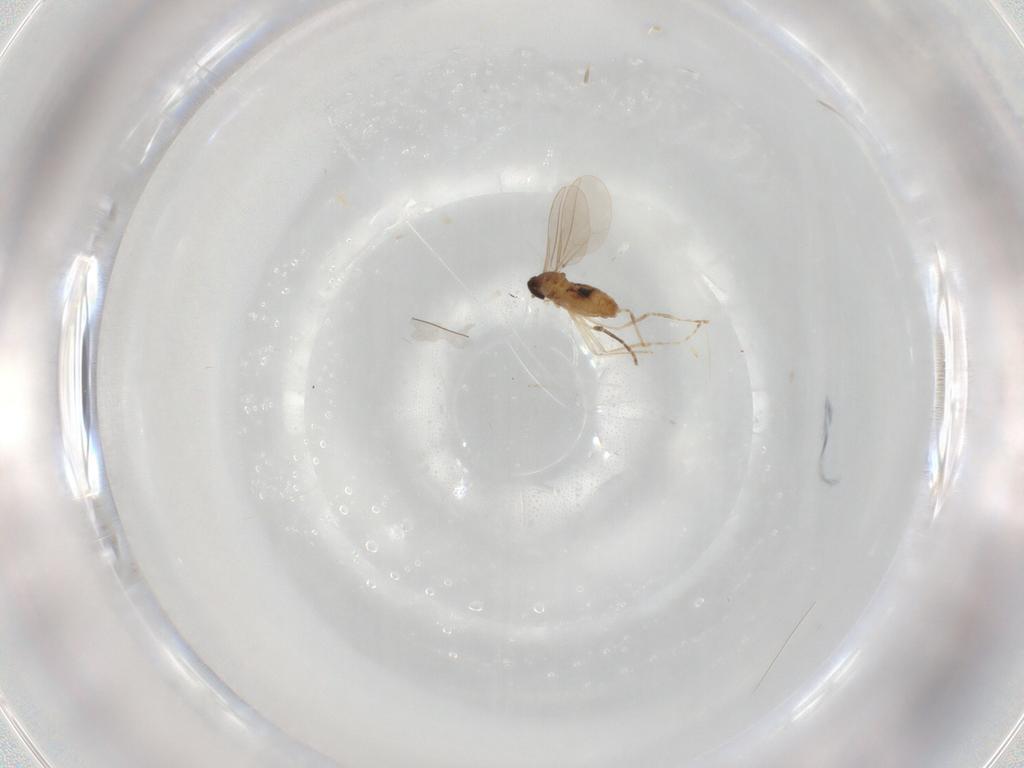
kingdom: Animalia
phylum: Arthropoda
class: Insecta
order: Diptera
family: Cecidomyiidae
